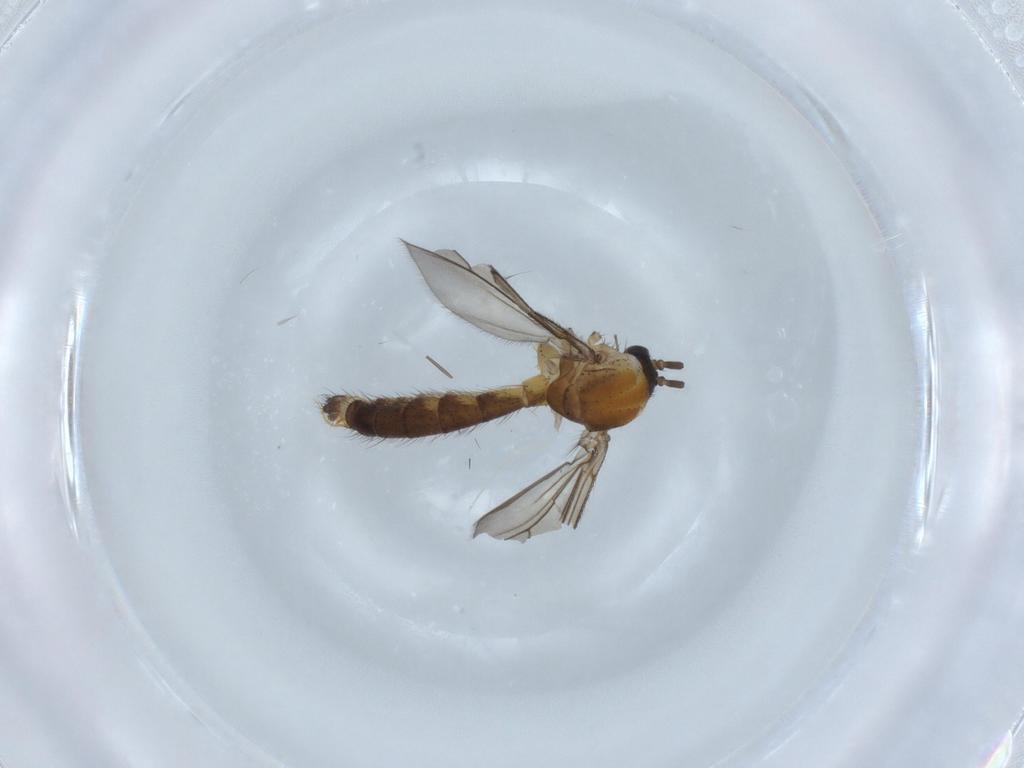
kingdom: Animalia
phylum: Arthropoda
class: Insecta
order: Diptera
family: Mycetophilidae
